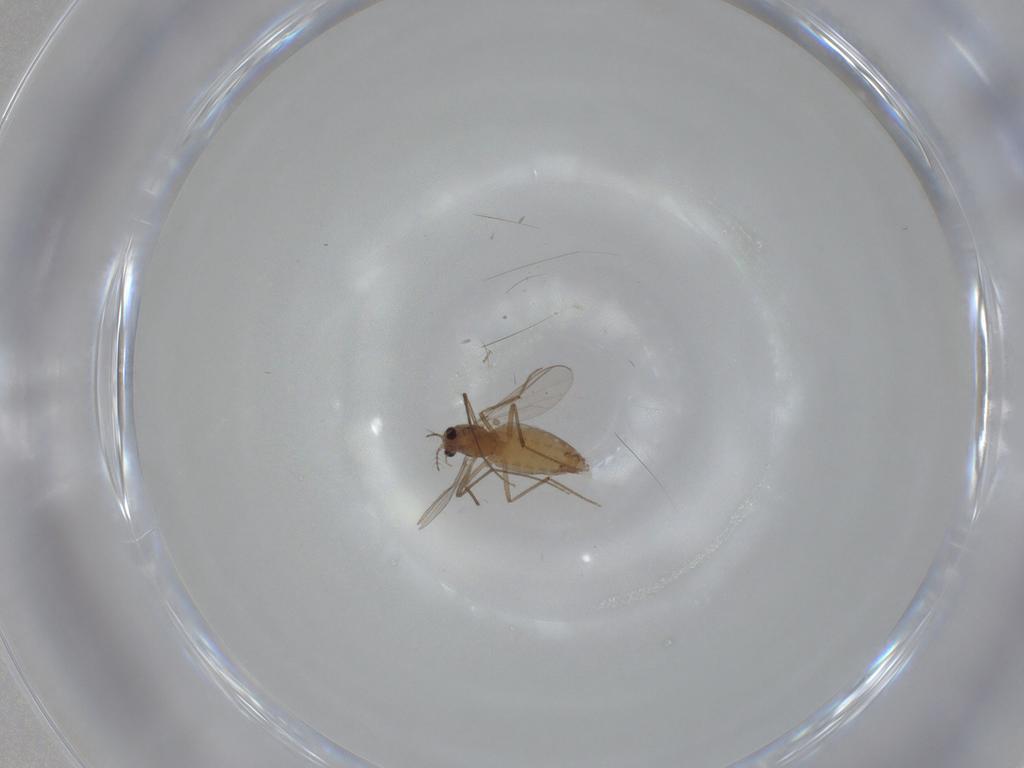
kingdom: Animalia
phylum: Arthropoda
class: Insecta
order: Diptera
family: Chironomidae
